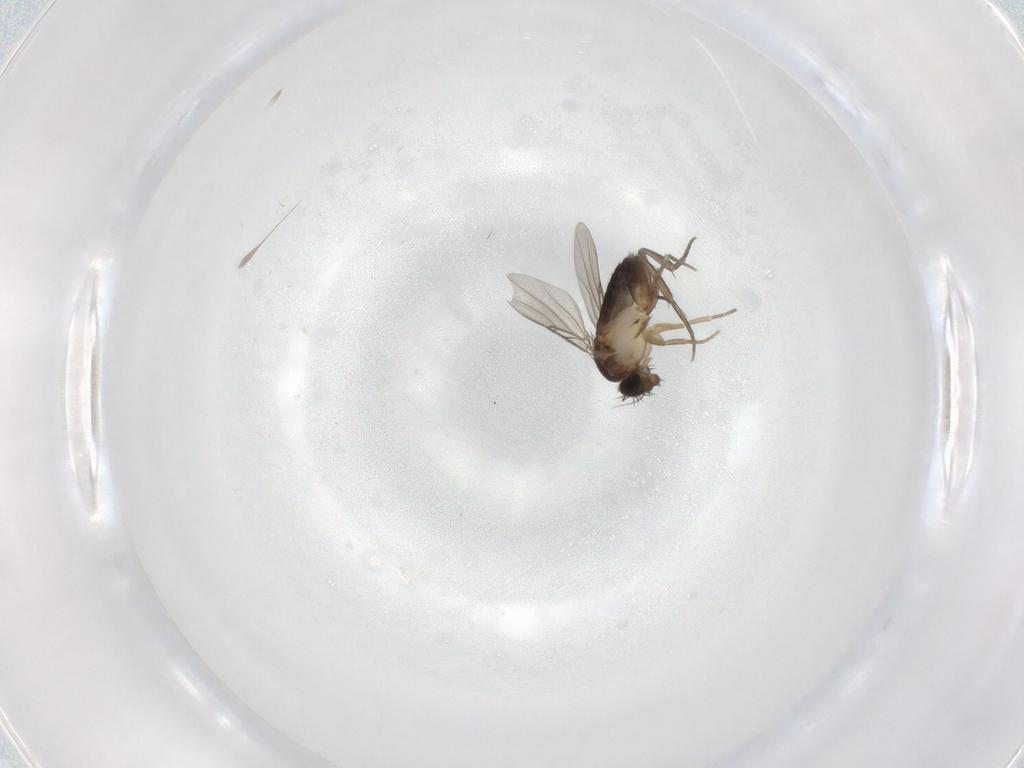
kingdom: Animalia
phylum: Arthropoda
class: Insecta
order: Diptera
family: Phoridae
